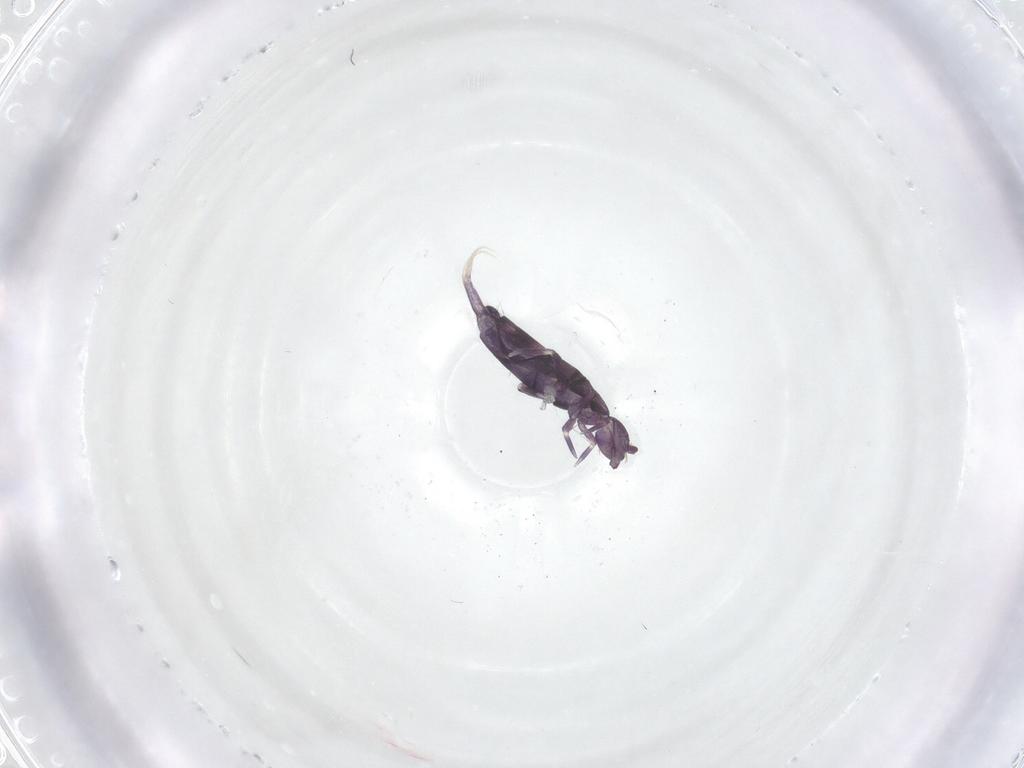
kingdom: Animalia
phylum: Arthropoda
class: Collembola
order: Entomobryomorpha
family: Entomobryidae
